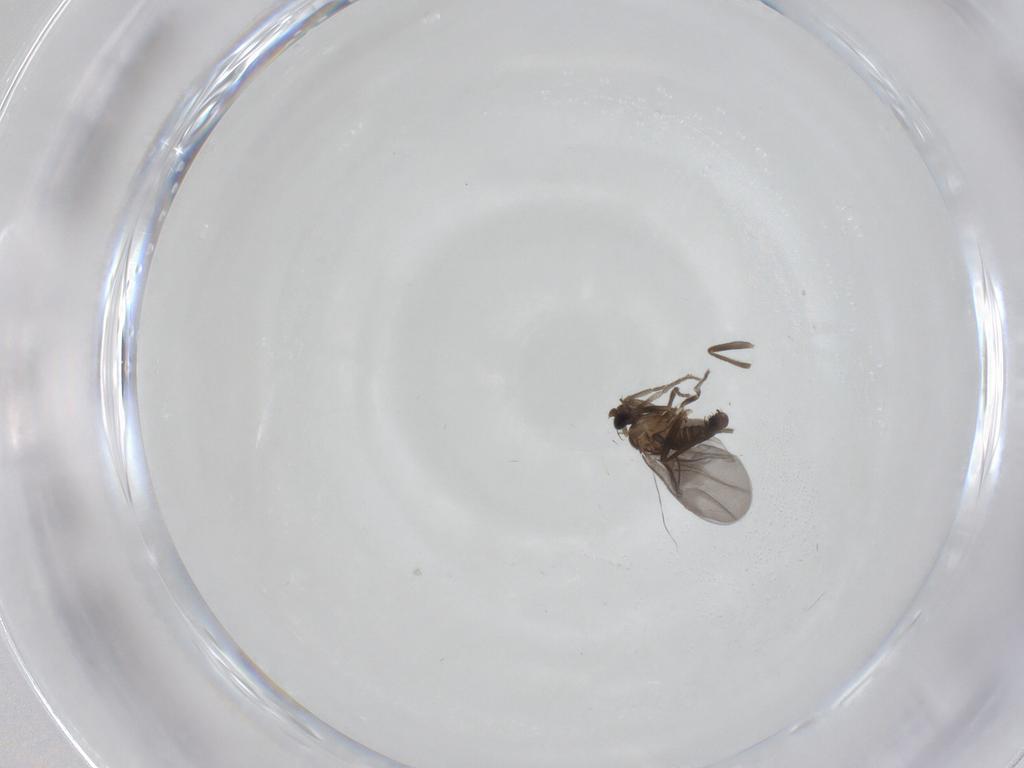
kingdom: Animalia
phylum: Arthropoda
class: Insecta
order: Diptera
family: Phoridae
